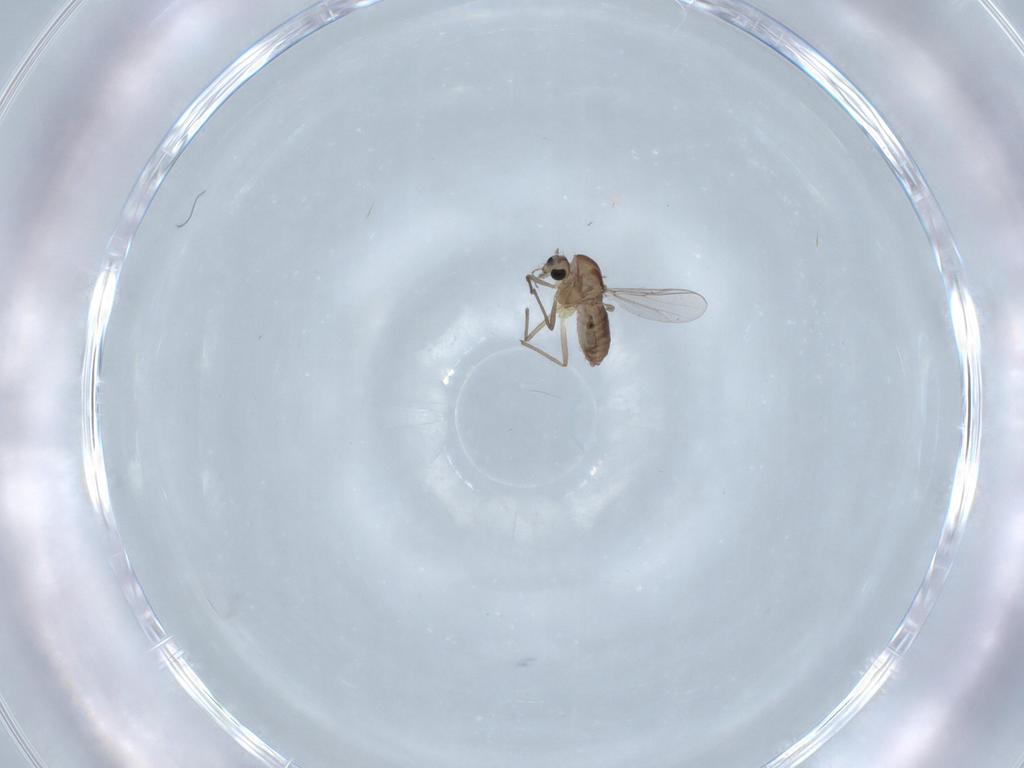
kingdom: Animalia
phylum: Arthropoda
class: Insecta
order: Diptera
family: Chironomidae
